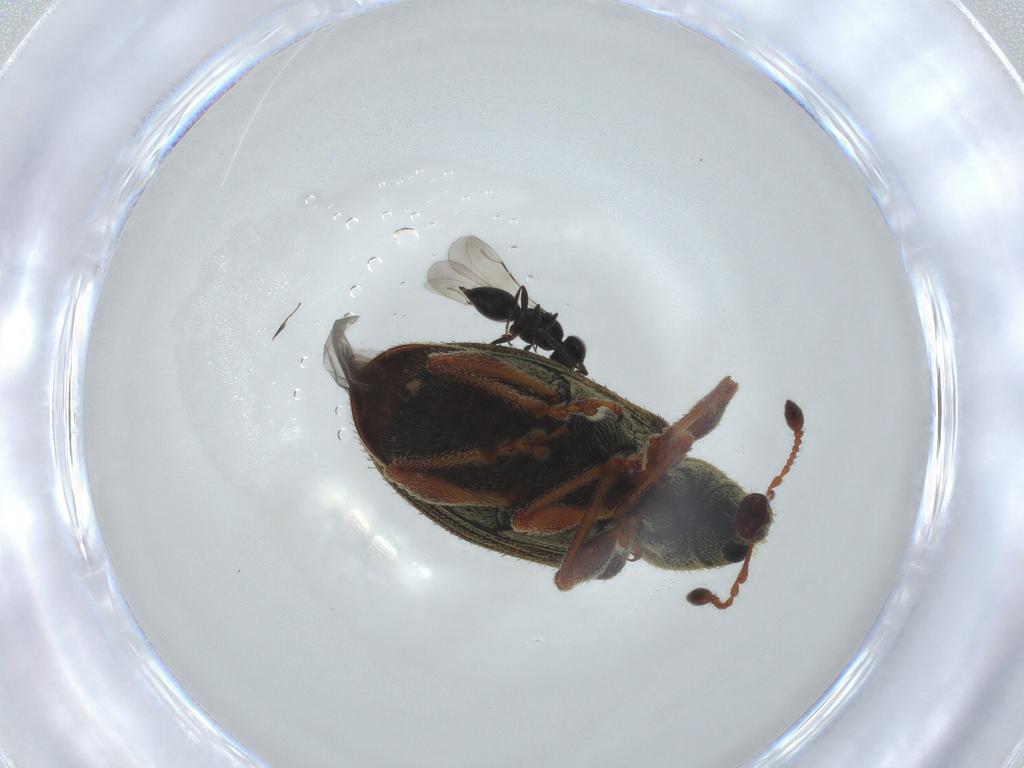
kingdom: Animalia
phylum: Arthropoda
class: Insecta
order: Coleoptera
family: Curculionidae
